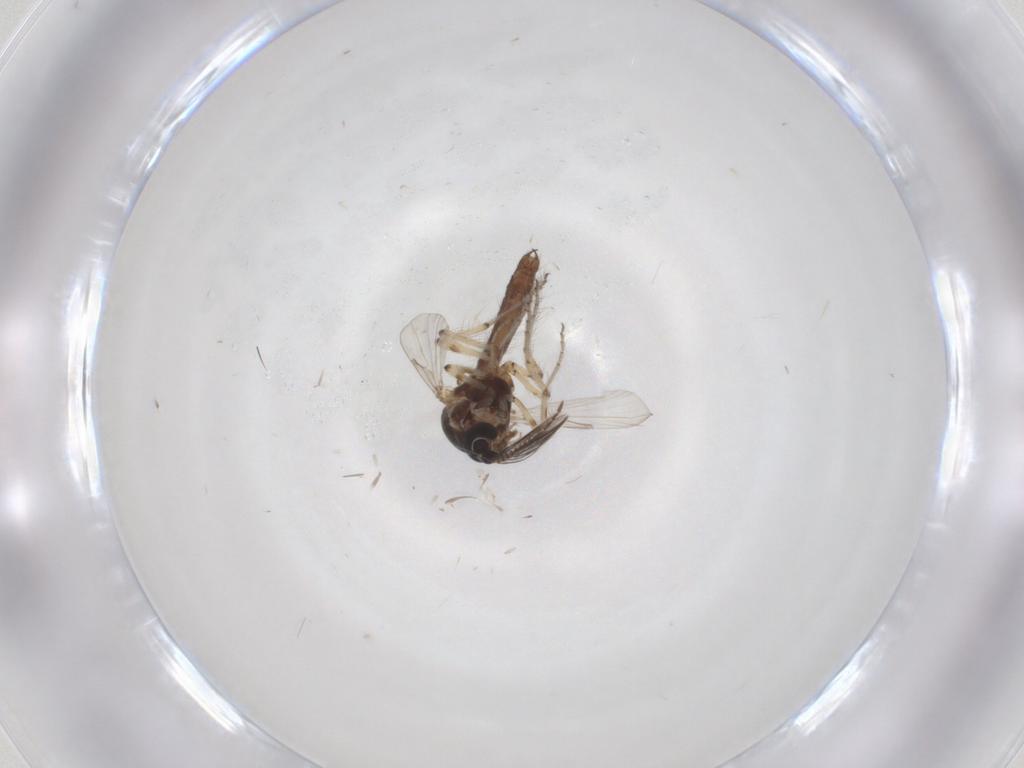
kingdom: Animalia
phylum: Arthropoda
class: Insecta
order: Diptera
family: Ceratopogonidae
